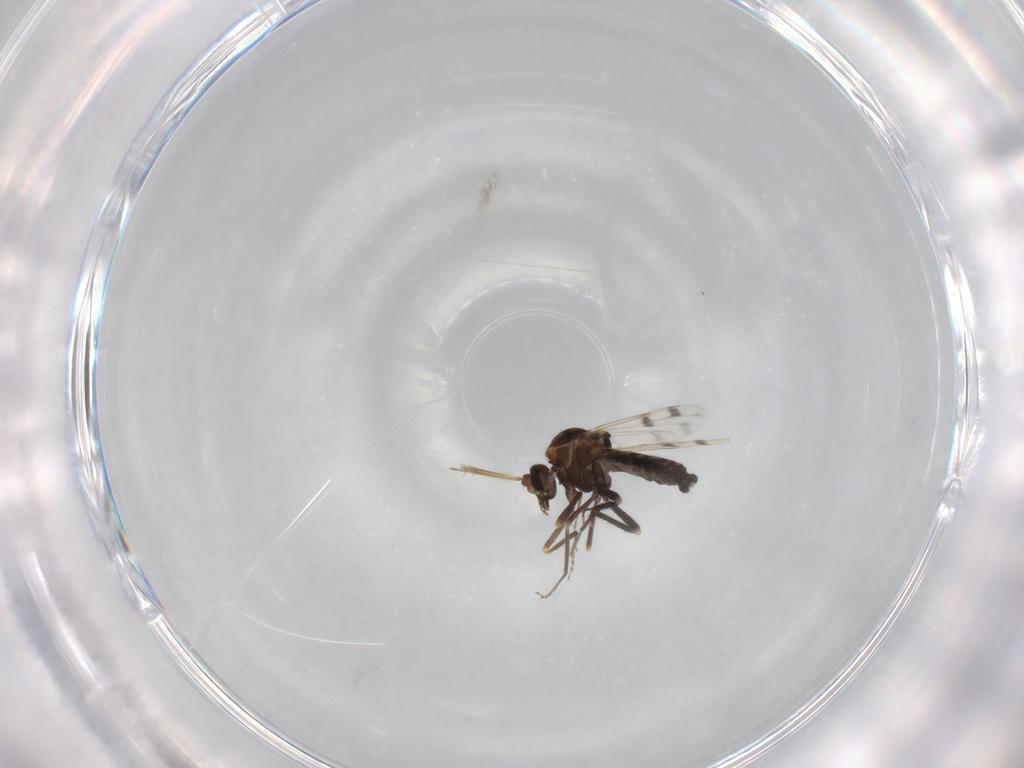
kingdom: Animalia
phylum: Arthropoda
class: Insecta
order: Diptera
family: Ceratopogonidae
